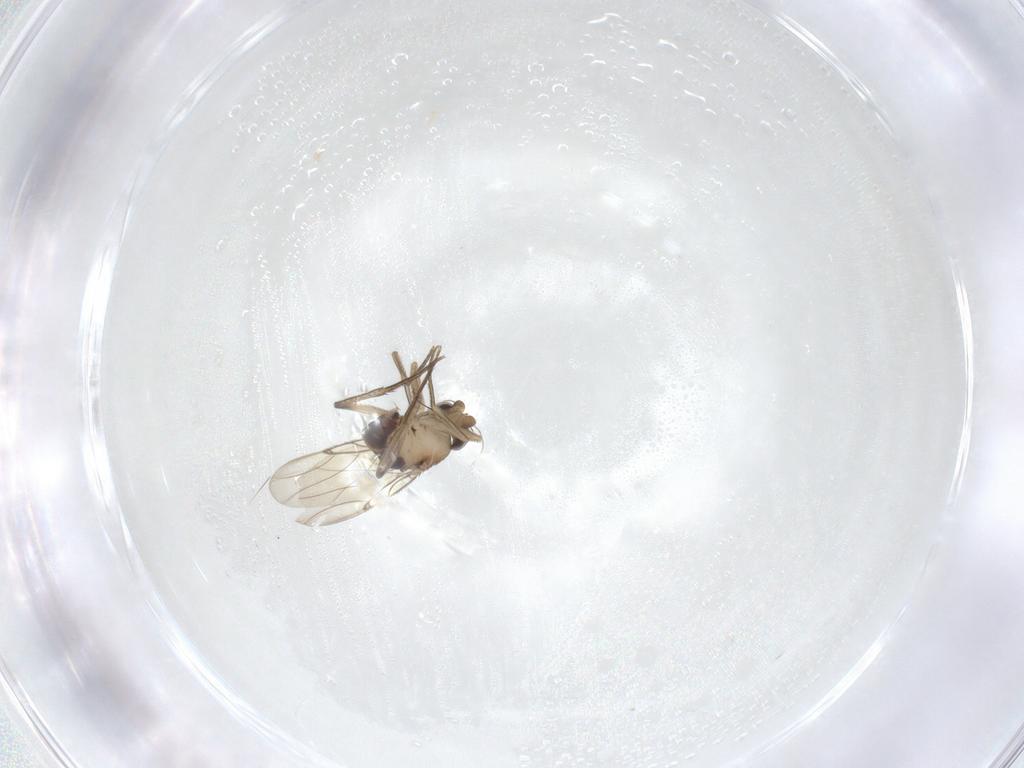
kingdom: Animalia
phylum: Arthropoda
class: Insecta
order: Diptera
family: Phoridae
